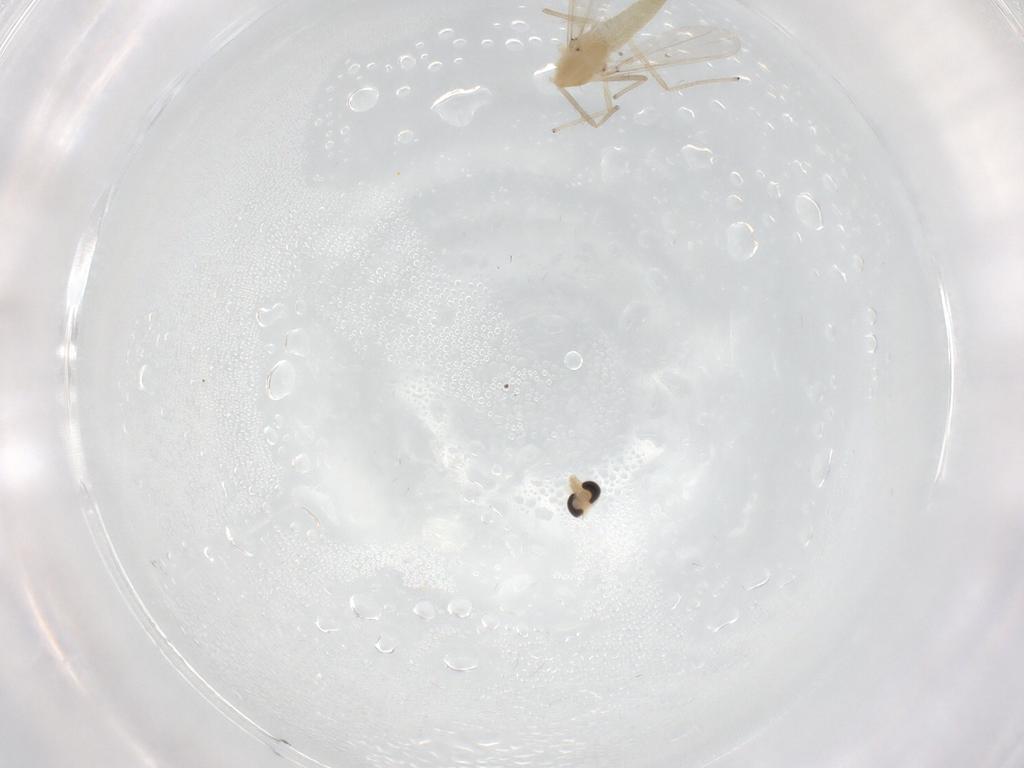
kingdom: Animalia
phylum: Arthropoda
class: Insecta
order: Diptera
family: Chironomidae
